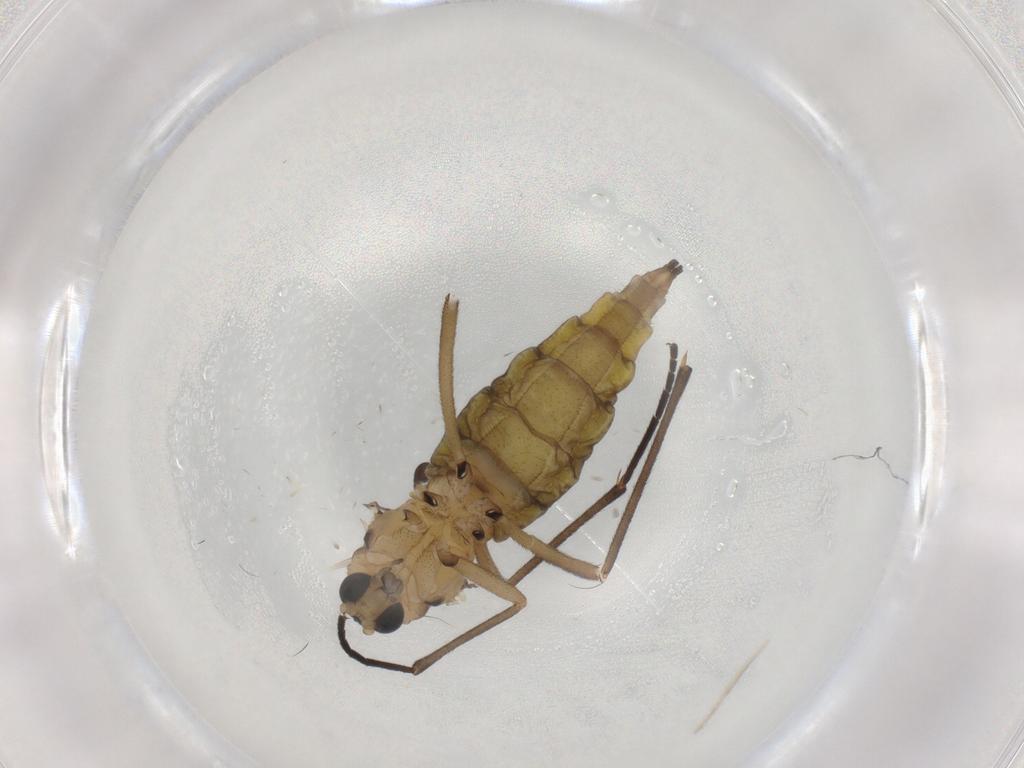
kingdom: Animalia
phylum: Arthropoda
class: Insecta
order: Diptera
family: Sciaridae
